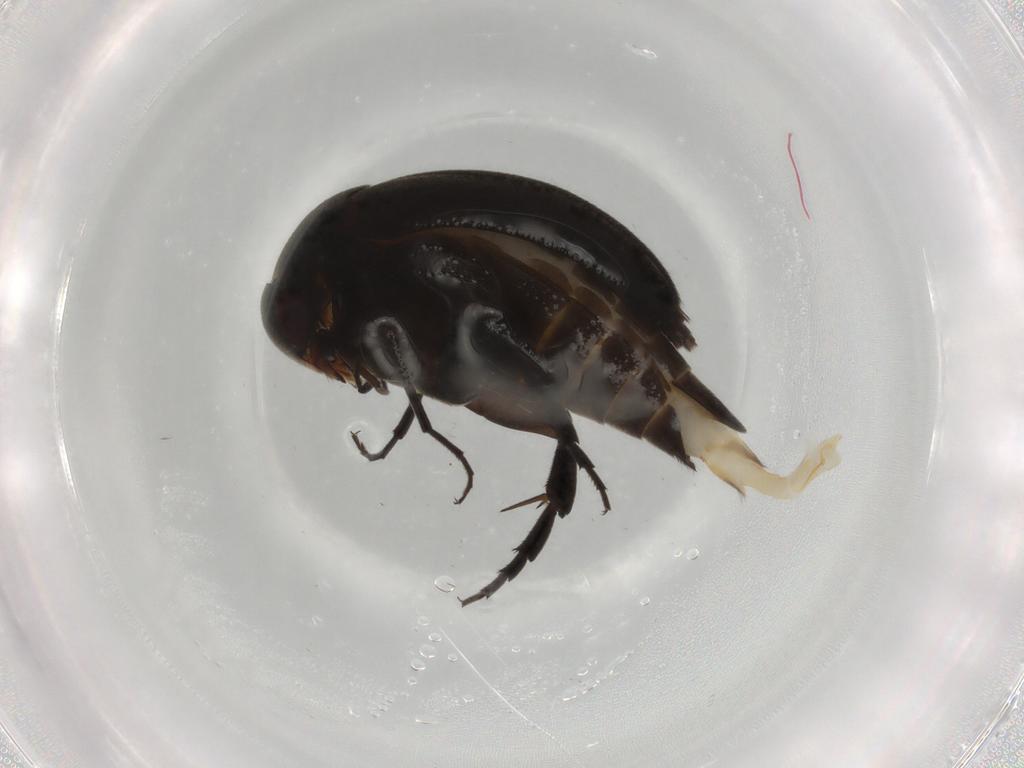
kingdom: Animalia
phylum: Arthropoda
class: Insecta
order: Coleoptera
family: Mordellidae
